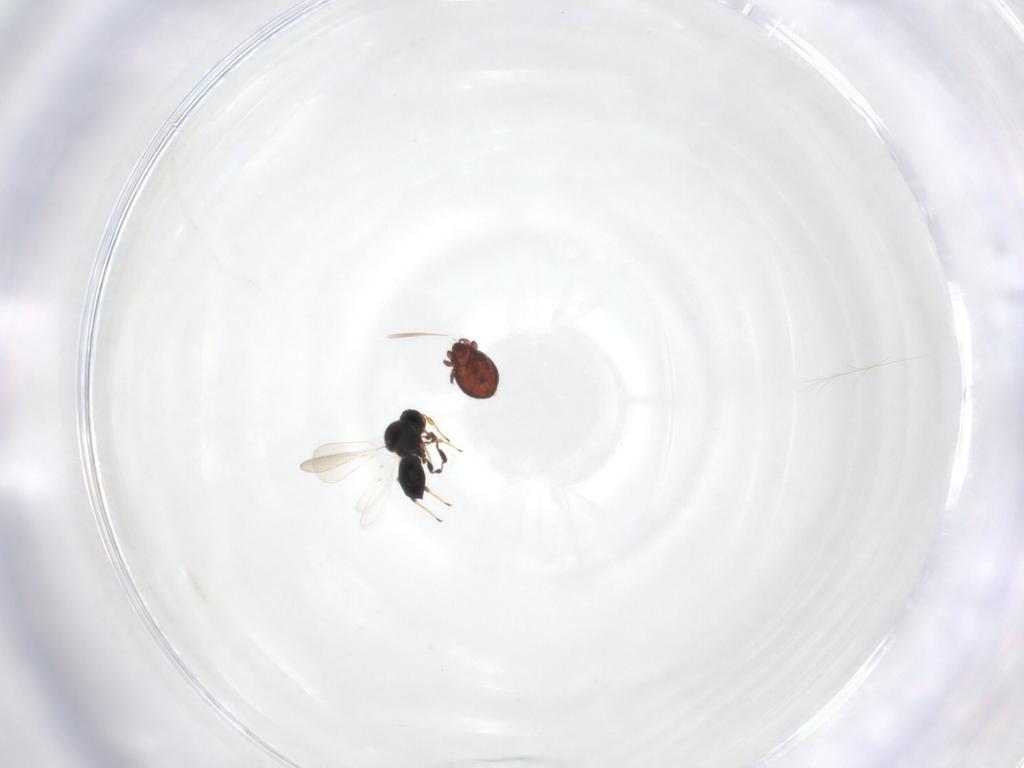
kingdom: Animalia
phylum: Arthropoda
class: Insecta
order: Hymenoptera
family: Platygastridae
